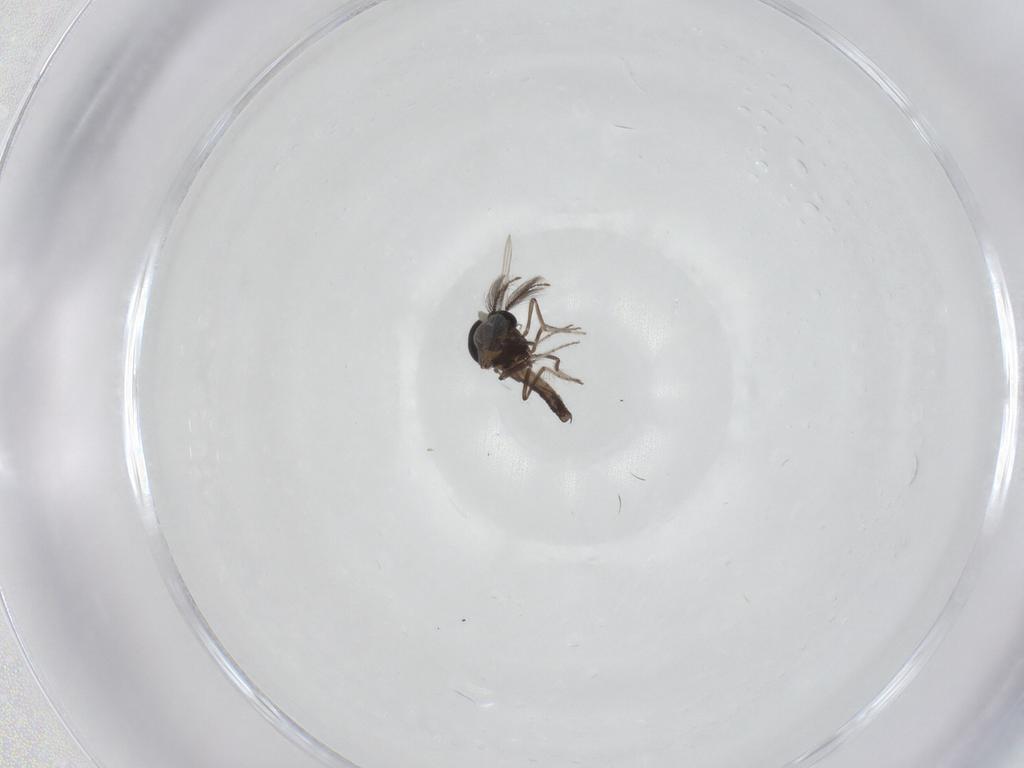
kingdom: Animalia
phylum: Arthropoda
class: Insecta
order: Diptera
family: Ceratopogonidae
